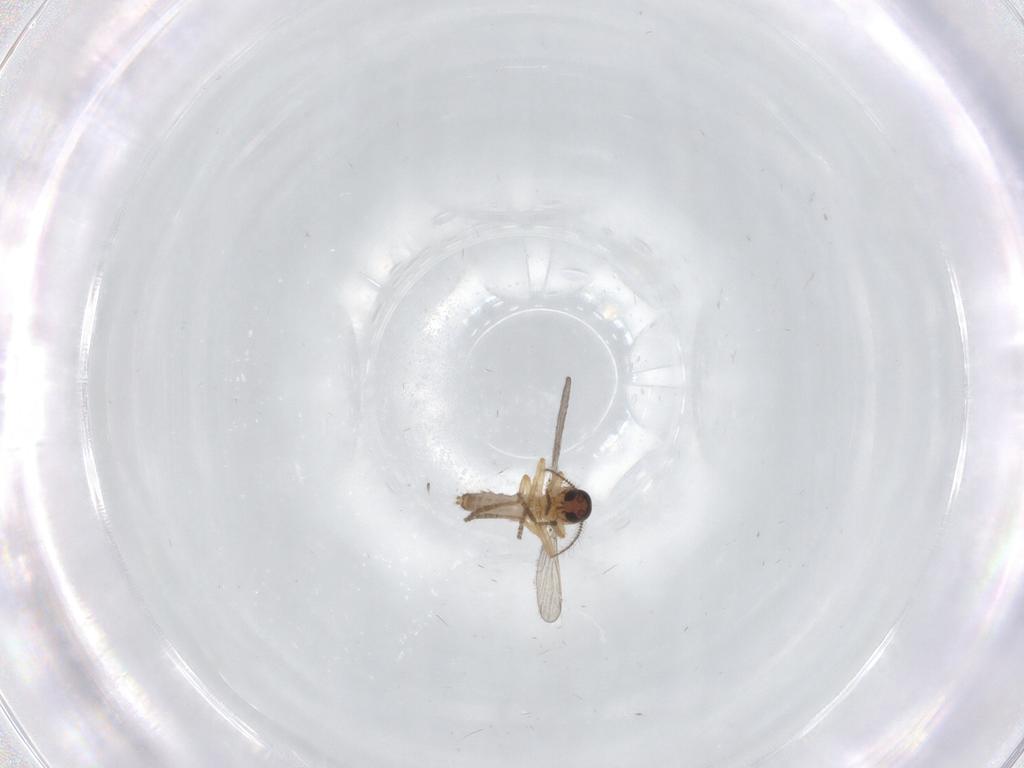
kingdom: Animalia
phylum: Arthropoda
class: Insecta
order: Diptera
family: Ceratopogonidae
